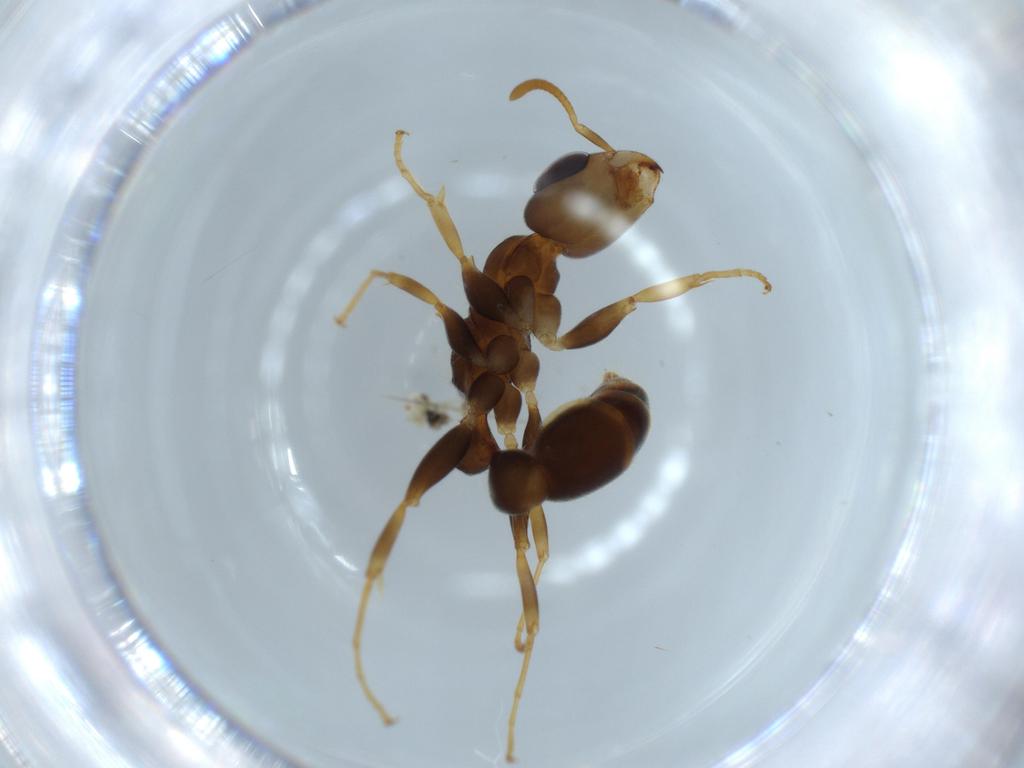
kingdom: Animalia
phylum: Arthropoda
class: Insecta
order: Hymenoptera
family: Formicidae
